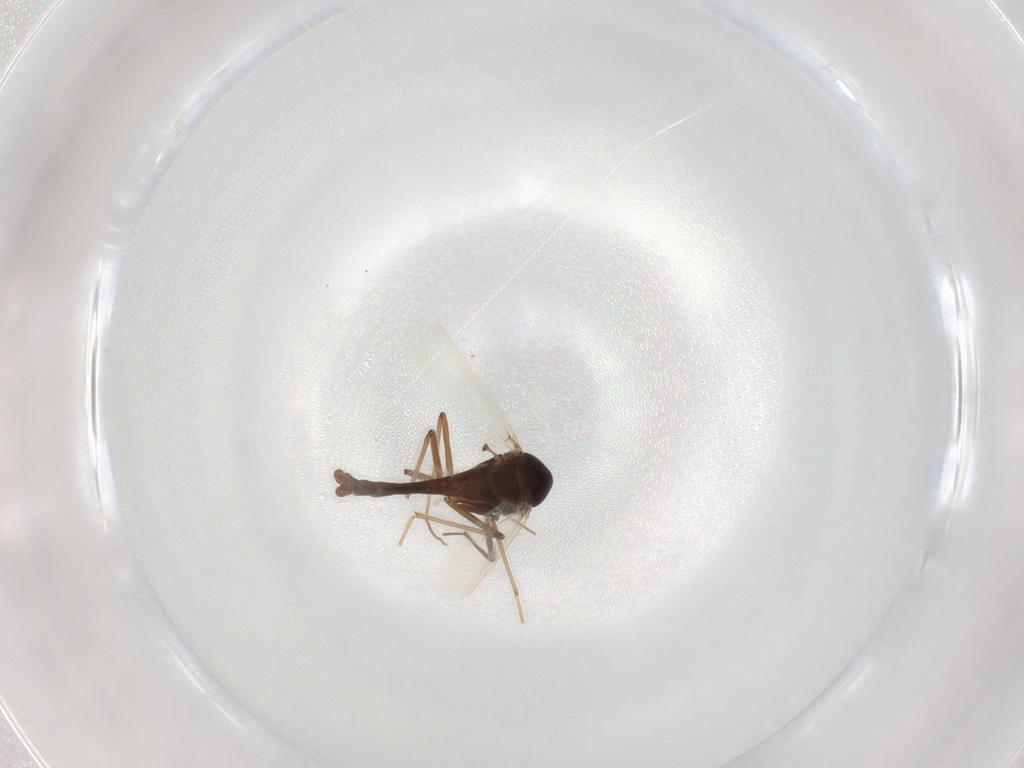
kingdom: Animalia
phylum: Arthropoda
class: Insecta
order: Diptera
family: Chironomidae
